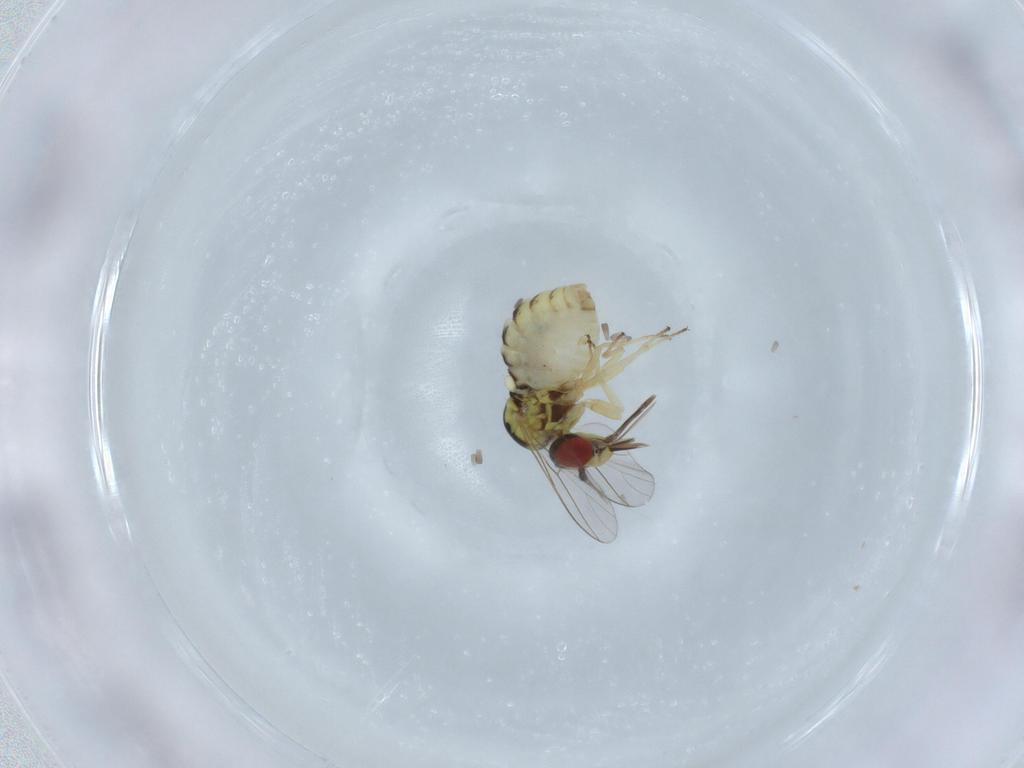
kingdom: Animalia
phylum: Arthropoda
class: Insecta
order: Diptera
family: Bombyliidae
